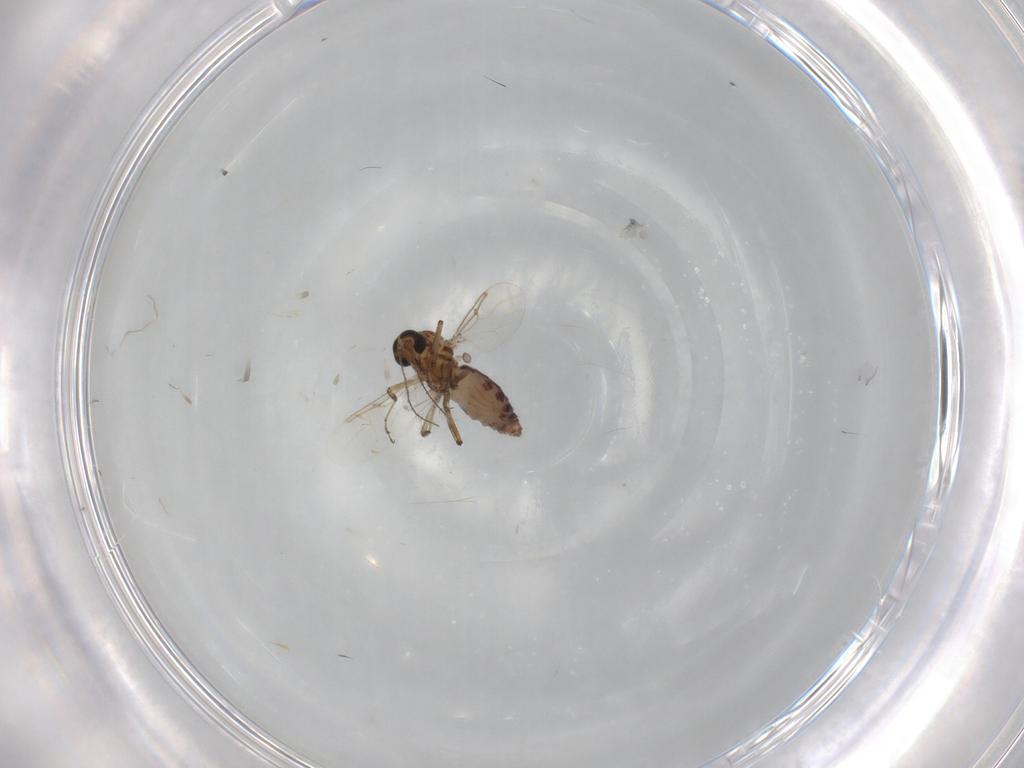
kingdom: Animalia
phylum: Arthropoda
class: Insecta
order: Diptera
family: Ceratopogonidae
